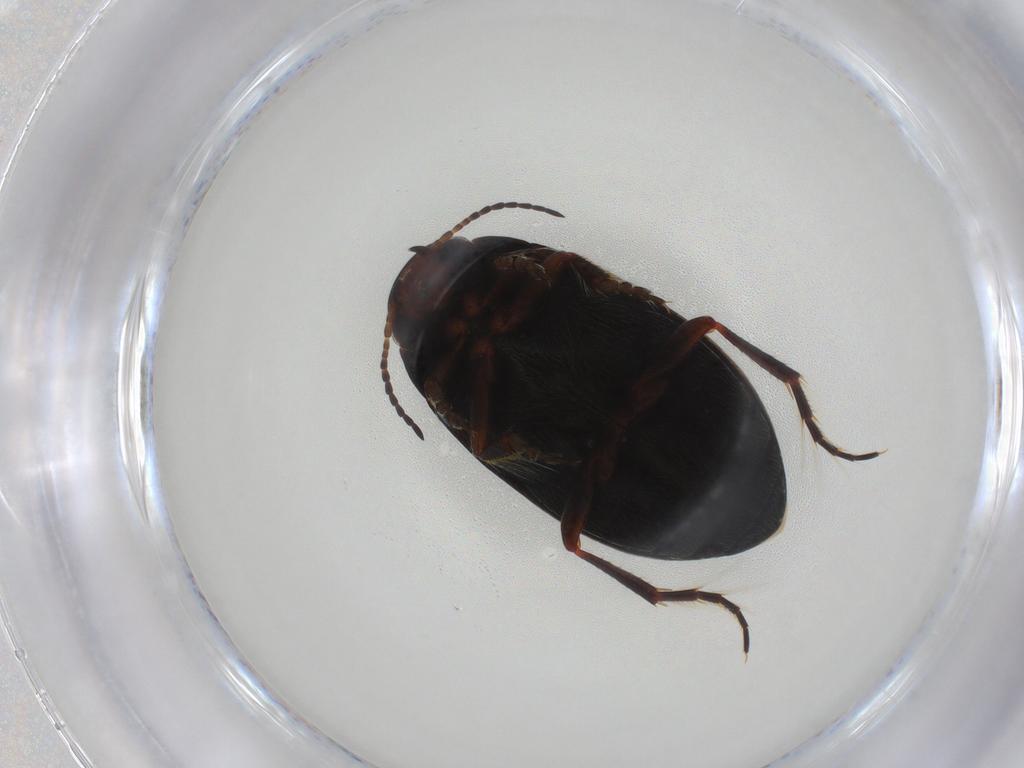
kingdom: Animalia
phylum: Arthropoda
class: Insecta
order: Coleoptera
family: Dytiscidae
